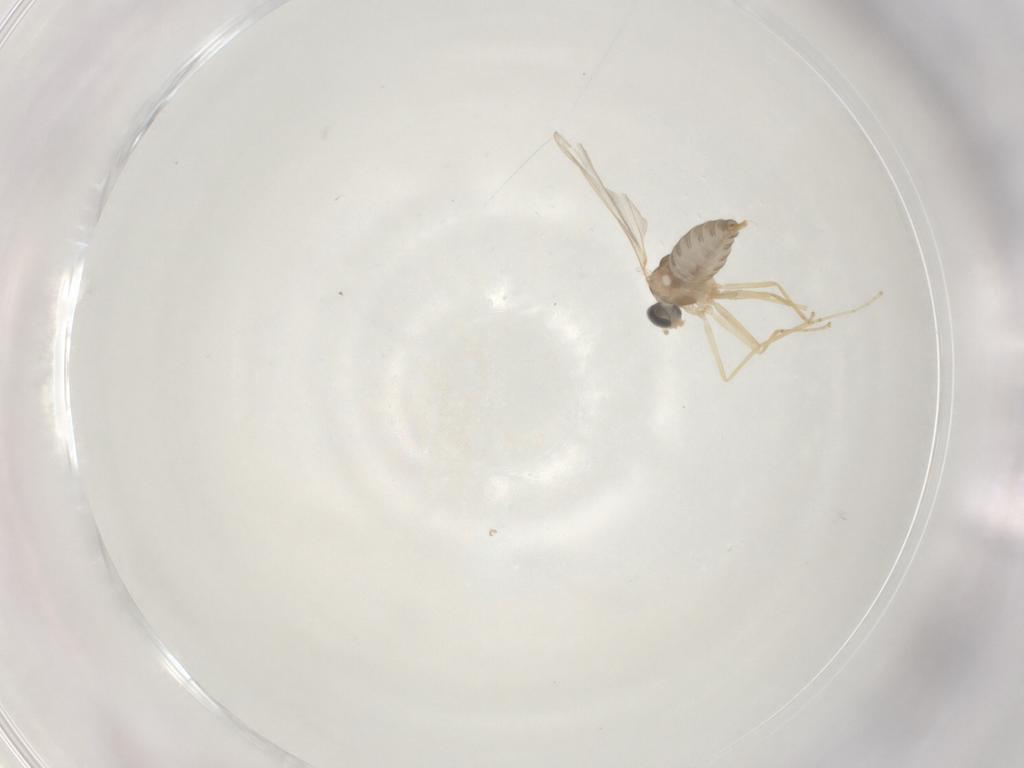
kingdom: Animalia
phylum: Arthropoda
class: Insecta
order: Diptera
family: Cecidomyiidae
